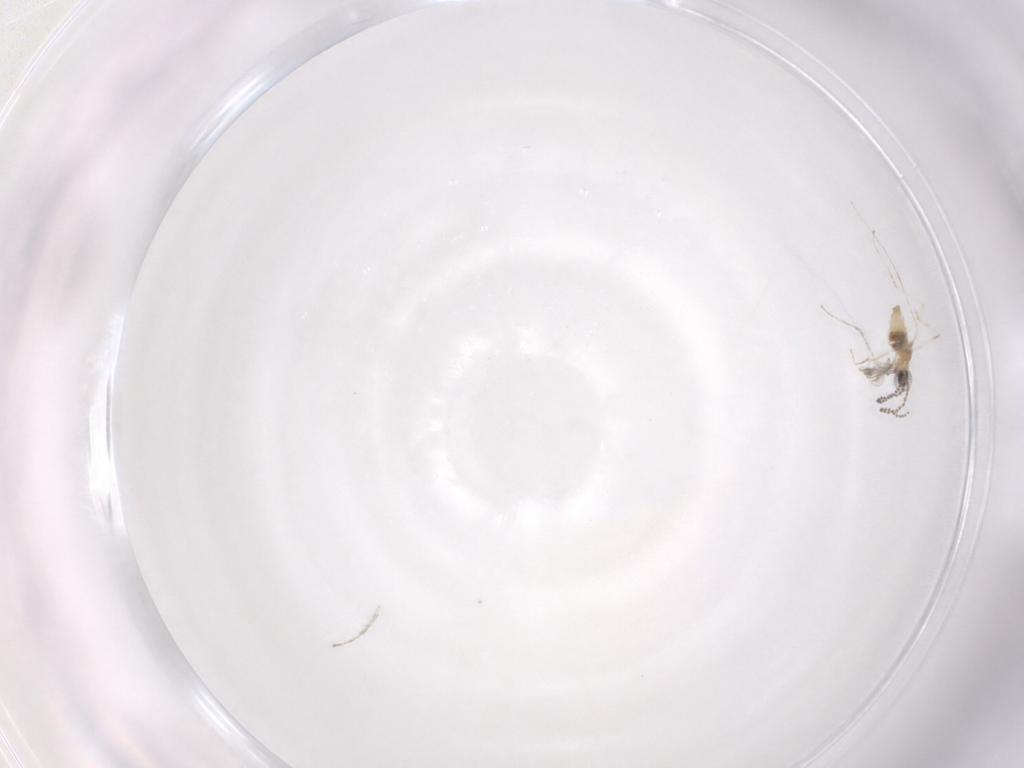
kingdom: Animalia
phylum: Arthropoda
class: Insecta
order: Diptera
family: Cecidomyiidae
